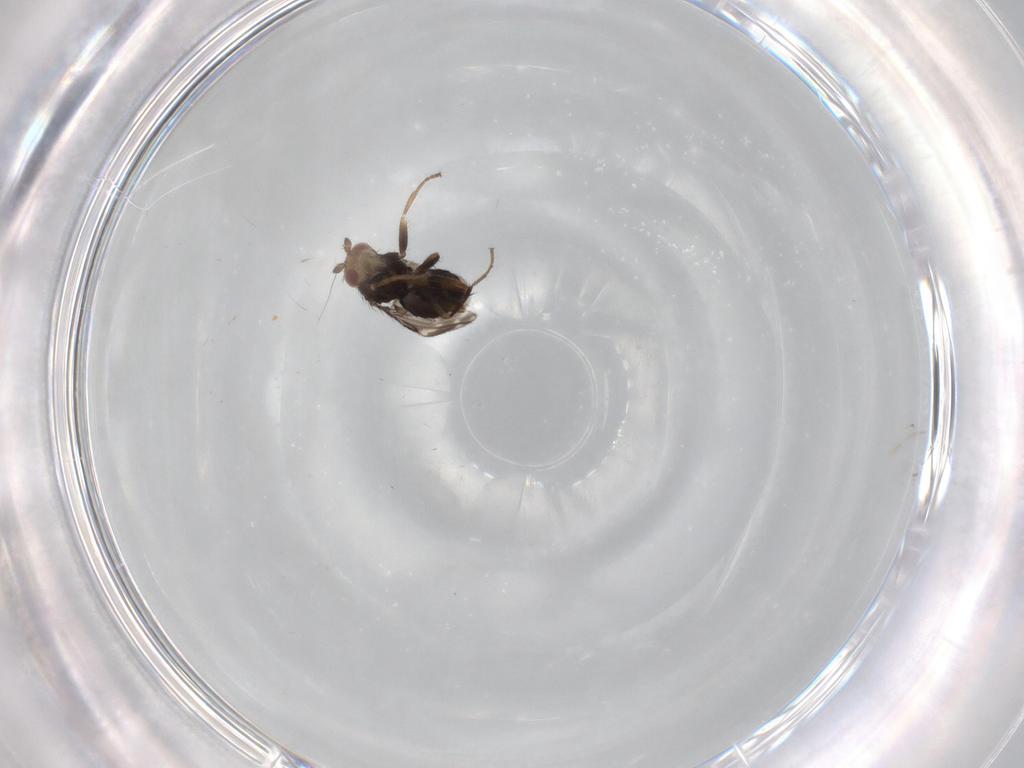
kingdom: Animalia
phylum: Arthropoda
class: Insecta
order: Diptera
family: Sphaeroceridae
